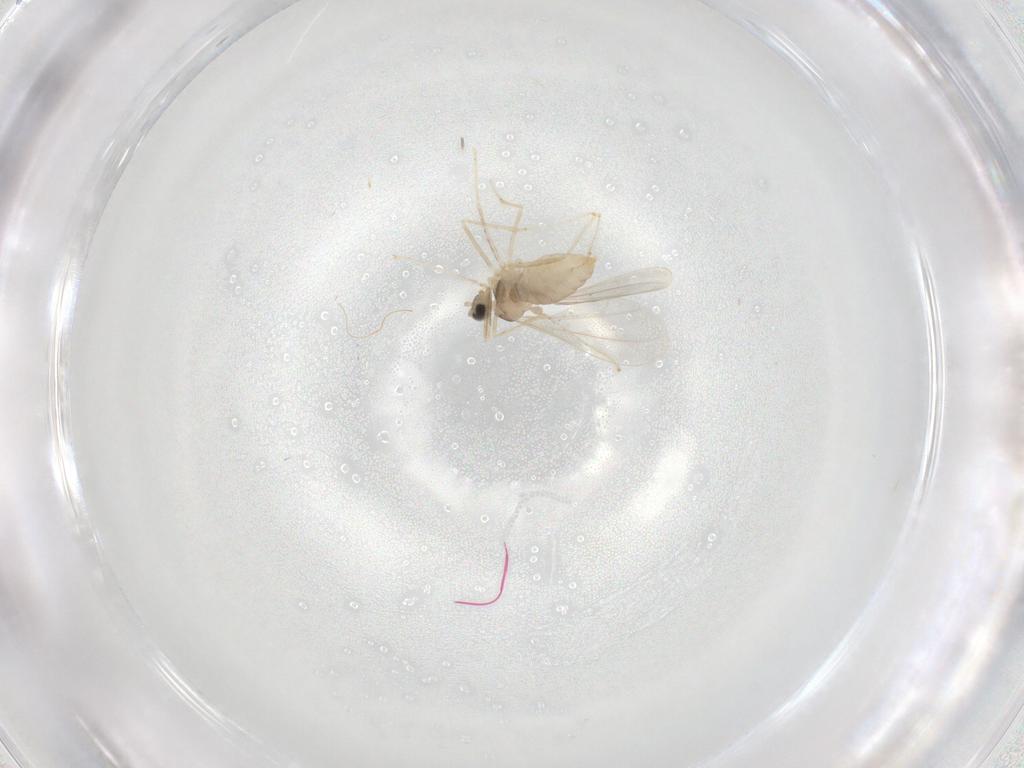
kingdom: Animalia
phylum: Arthropoda
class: Insecta
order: Diptera
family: Cecidomyiidae
